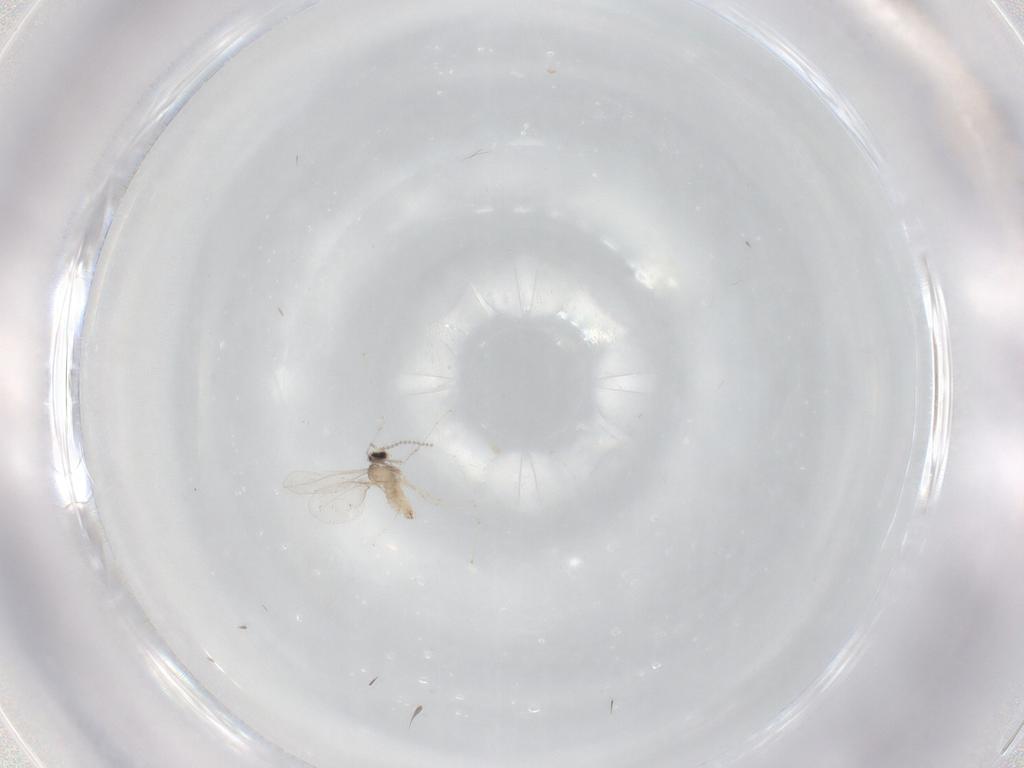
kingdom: Animalia
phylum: Arthropoda
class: Insecta
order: Diptera
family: Cecidomyiidae
